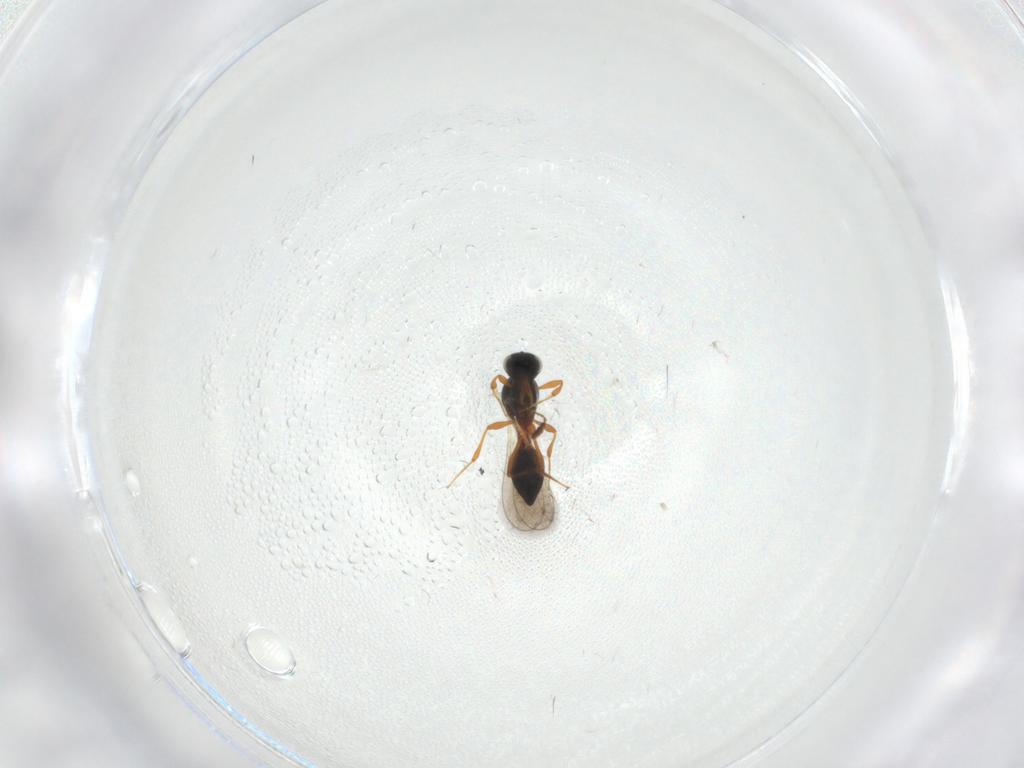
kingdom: Animalia
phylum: Arthropoda
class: Insecta
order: Hymenoptera
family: Platygastridae
